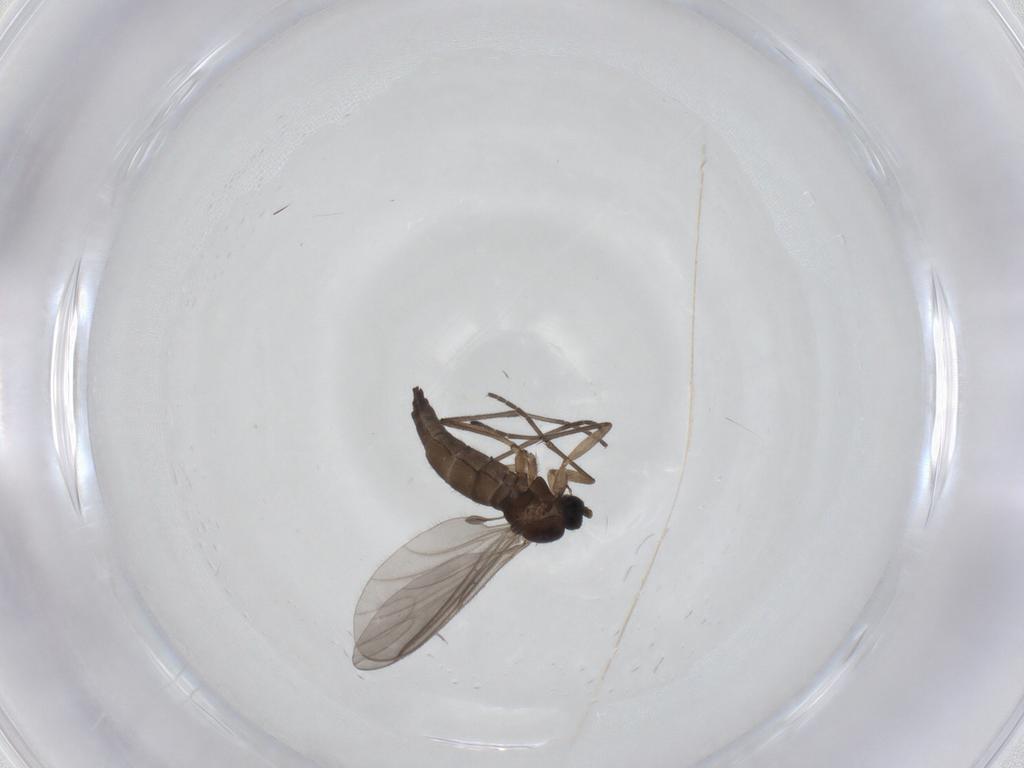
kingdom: Animalia
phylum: Arthropoda
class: Insecta
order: Diptera
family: Sciaridae
